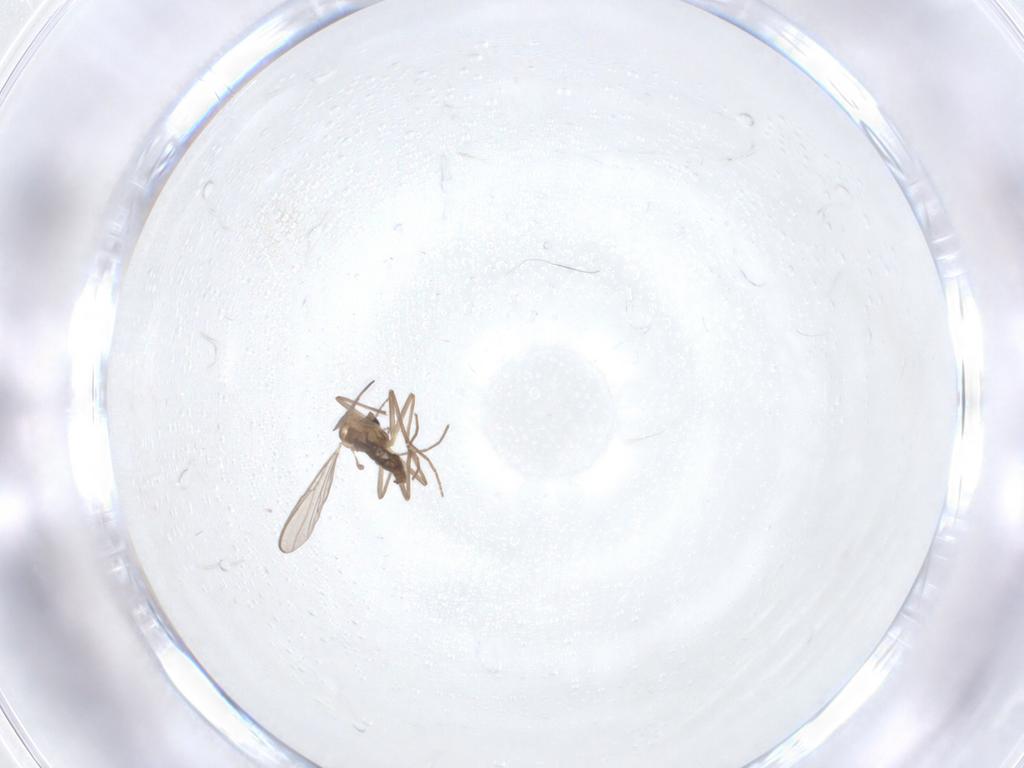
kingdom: Animalia
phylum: Arthropoda
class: Insecta
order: Diptera
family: Chironomidae
